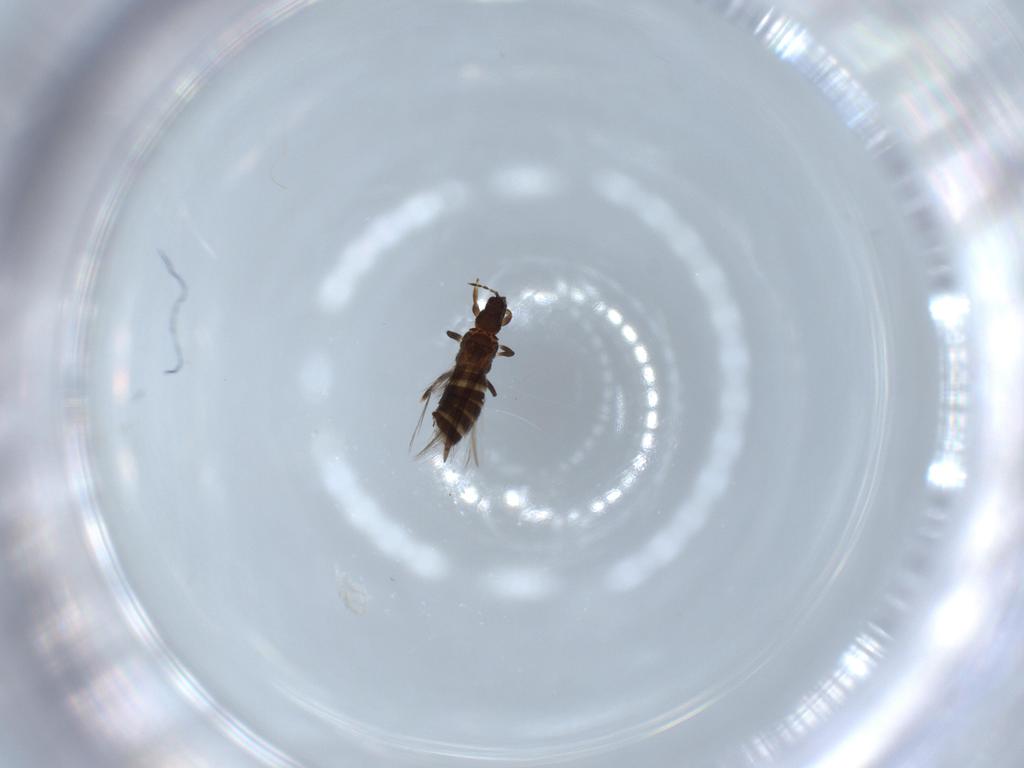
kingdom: Animalia
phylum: Arthropoda
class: Insecta
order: Thysanoptera
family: Thripidae
